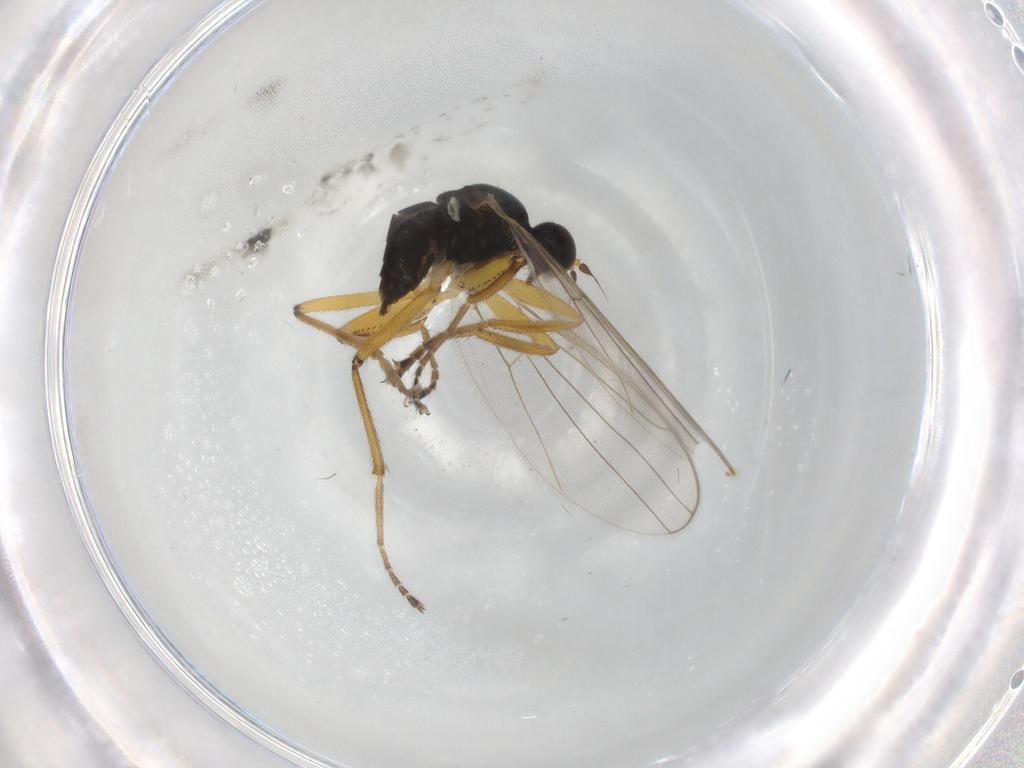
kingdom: Animalia
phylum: Arthropoda
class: Insecta
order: Diptera
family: Hybotidae
